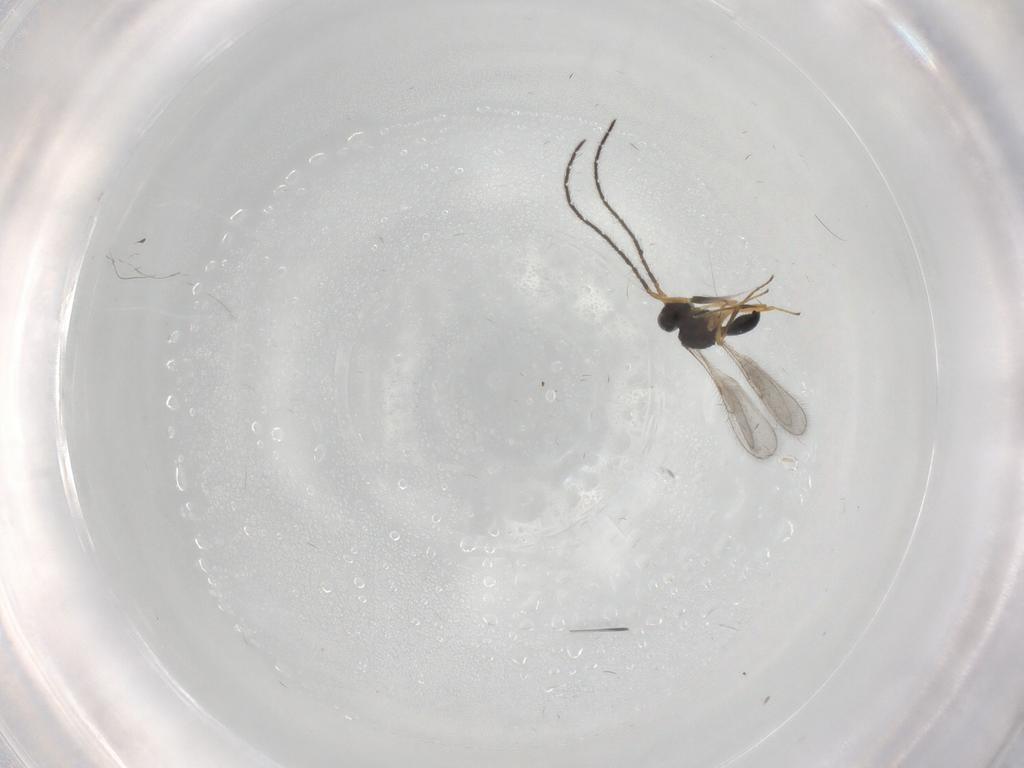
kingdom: Animalia
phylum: Arthropoda
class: Insecta
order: Hymenoptera
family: Scelionidae
